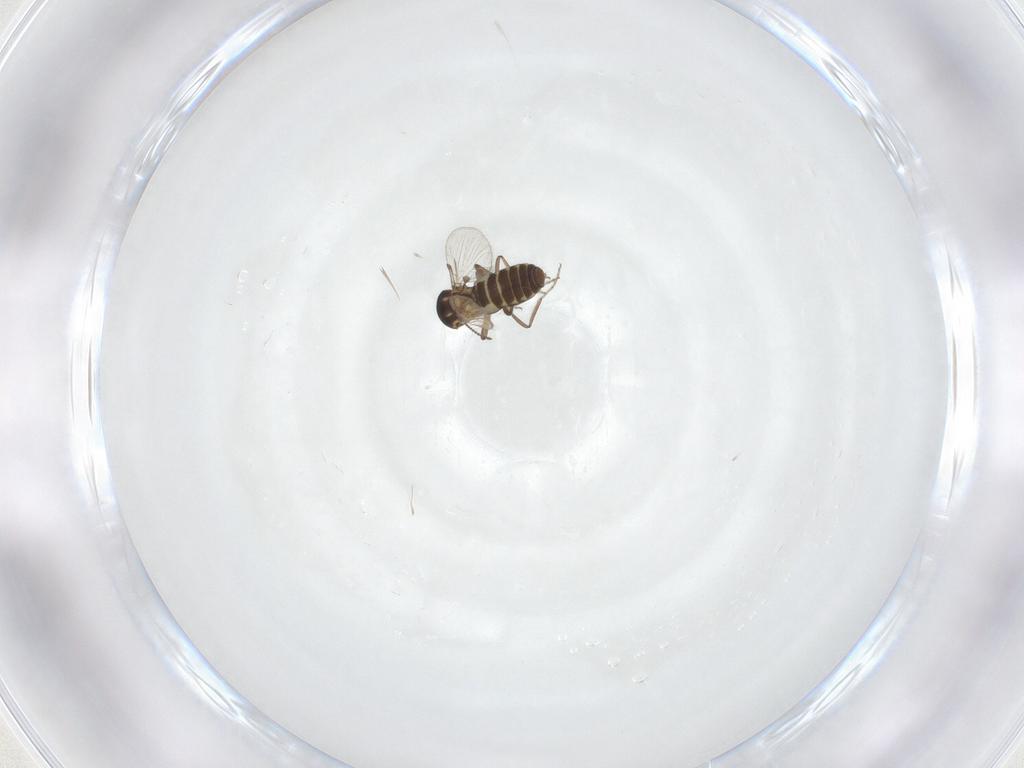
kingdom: Animalia
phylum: Arthropoda
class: Insecta
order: Diptera
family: Ceratopogonidae
